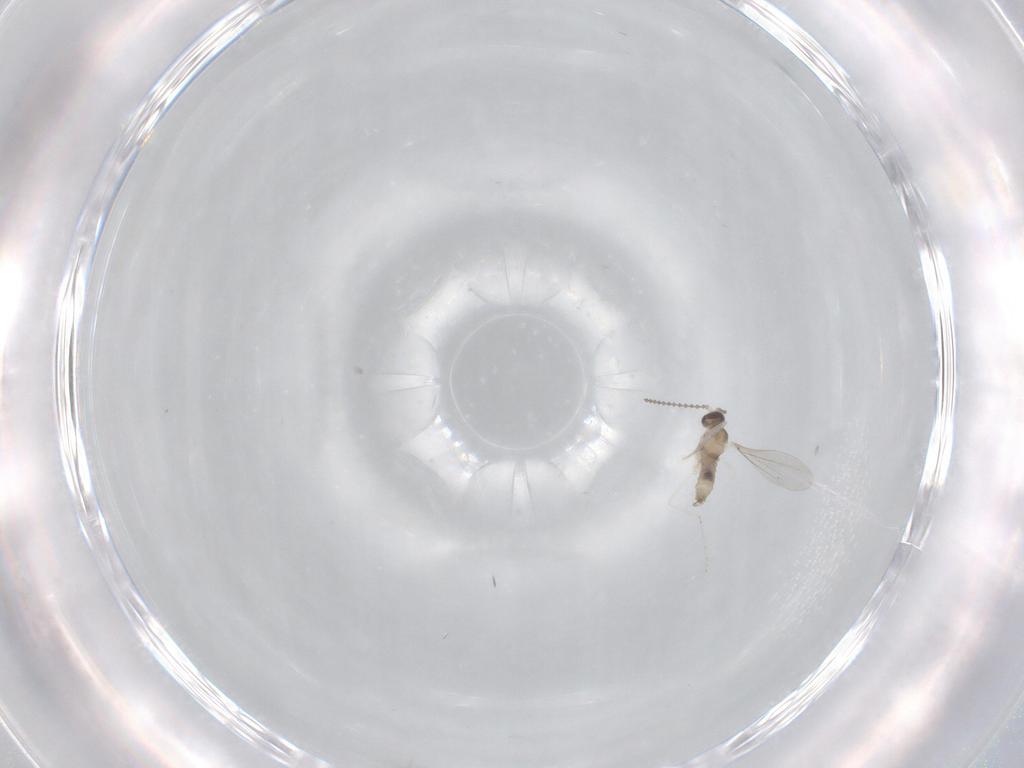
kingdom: Animalia
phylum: Arthropoda
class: Insecta
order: Diptera
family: Cecidomyiidae
